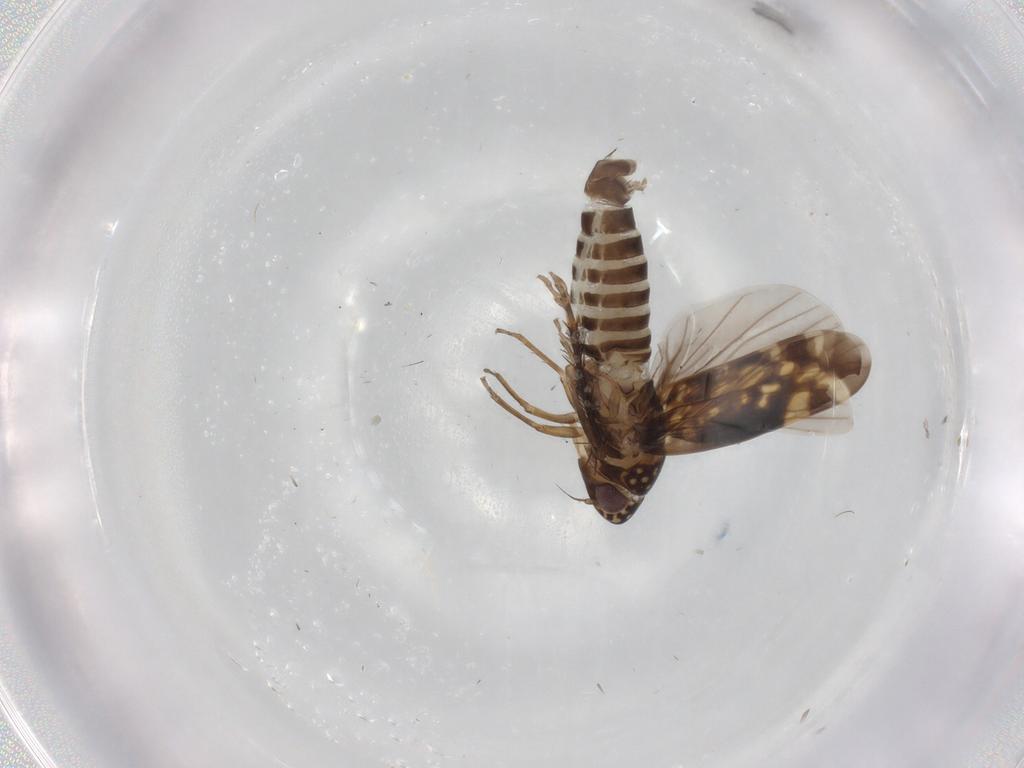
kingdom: Animalia
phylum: Arthropoda
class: Insecta
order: Hemiptera
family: Cicadellidae
